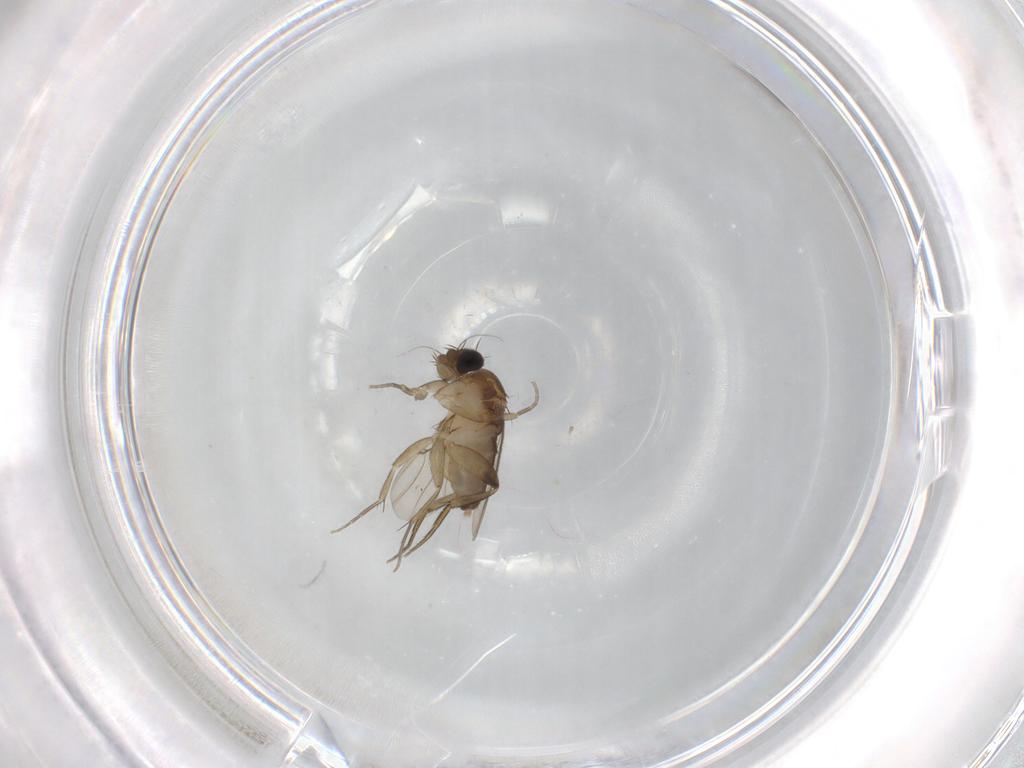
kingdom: Animalia
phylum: Arthropoda
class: Insecta
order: Diptera
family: Phoridae
